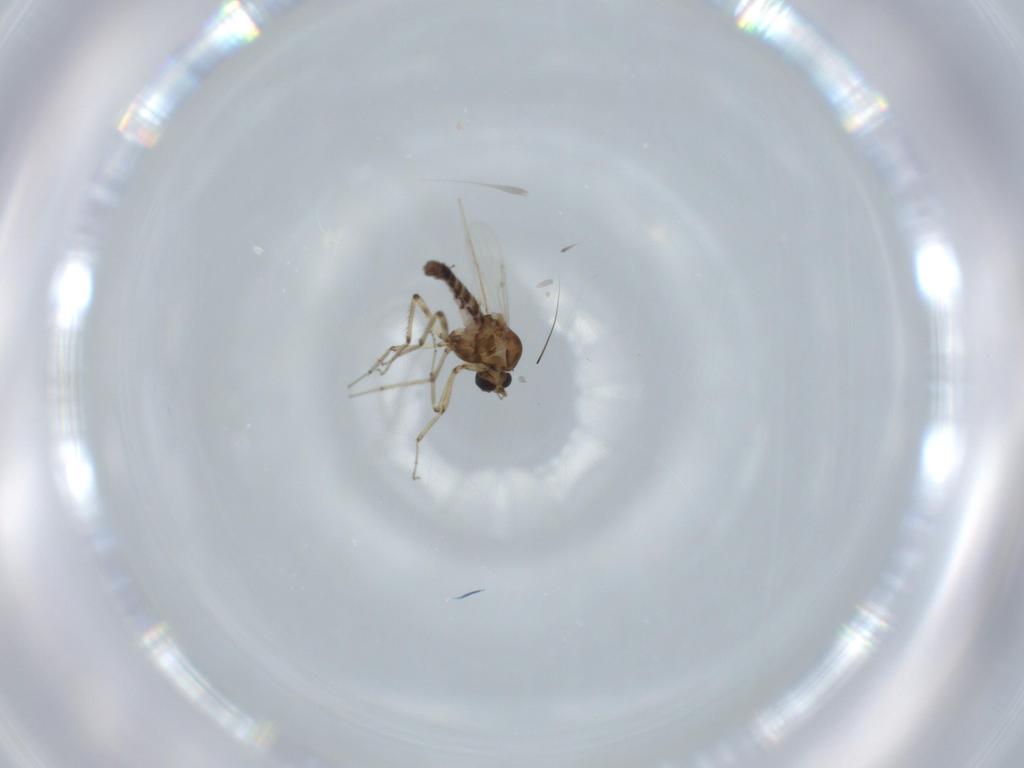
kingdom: Animalia
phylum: Arthropoda
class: Insecta
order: Diptera
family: Ceratopogonidae
